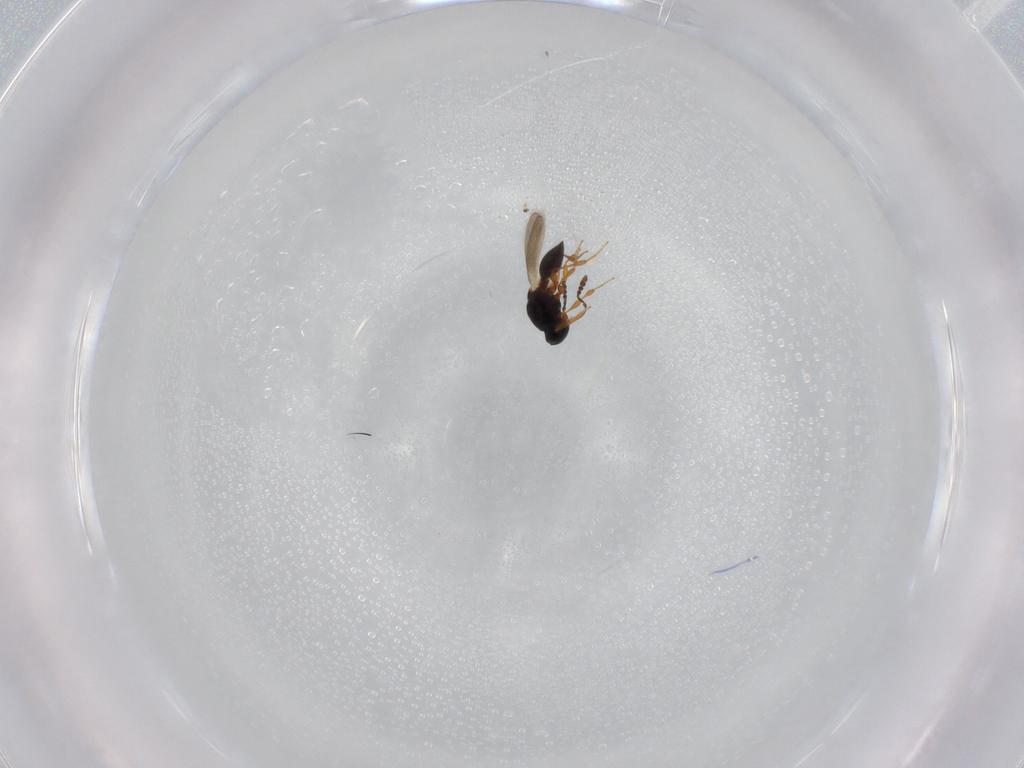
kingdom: Animalia
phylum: Arthropoda
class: Insecta
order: Hymenoptera
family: Platygastridae
